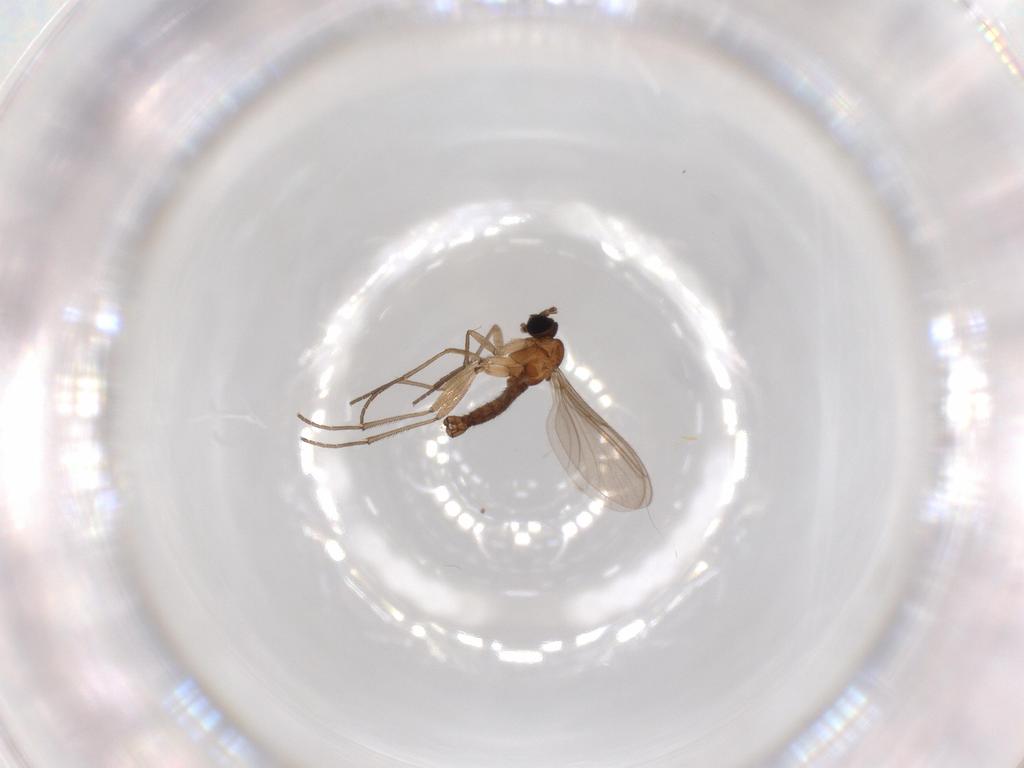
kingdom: Animalia
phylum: Arthropoda
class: Insecta
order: Diptera
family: Sciaridae
